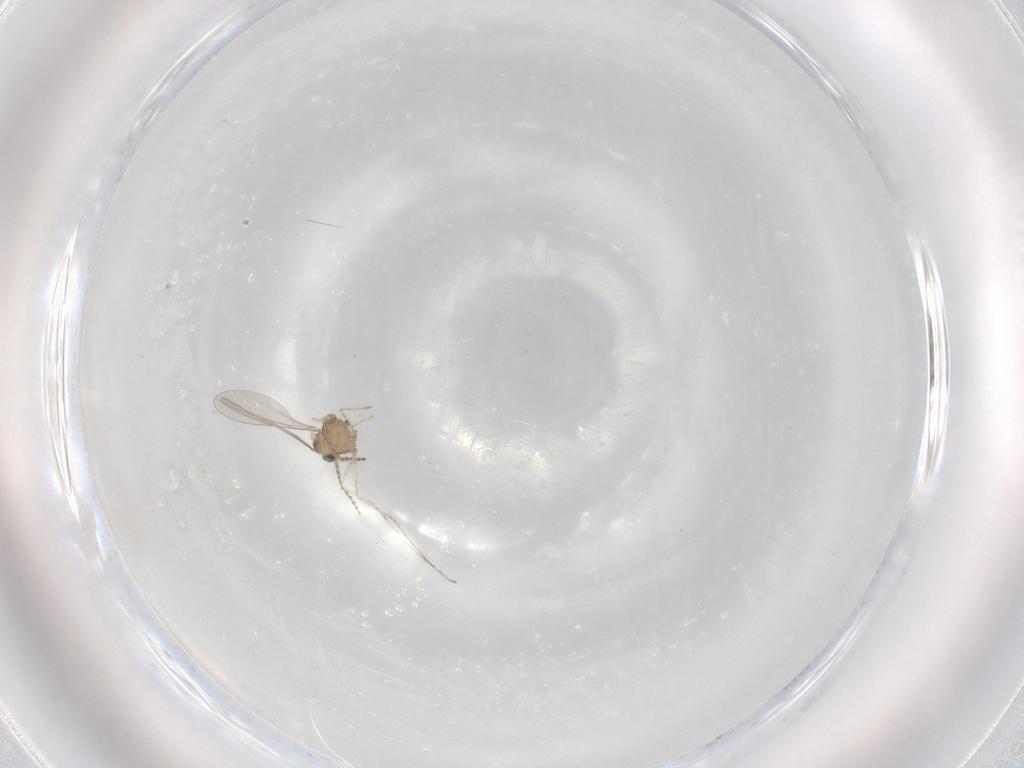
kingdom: Animalia
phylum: Arthropoda
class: Insecta
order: Diptera
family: Cecidomyiidae
